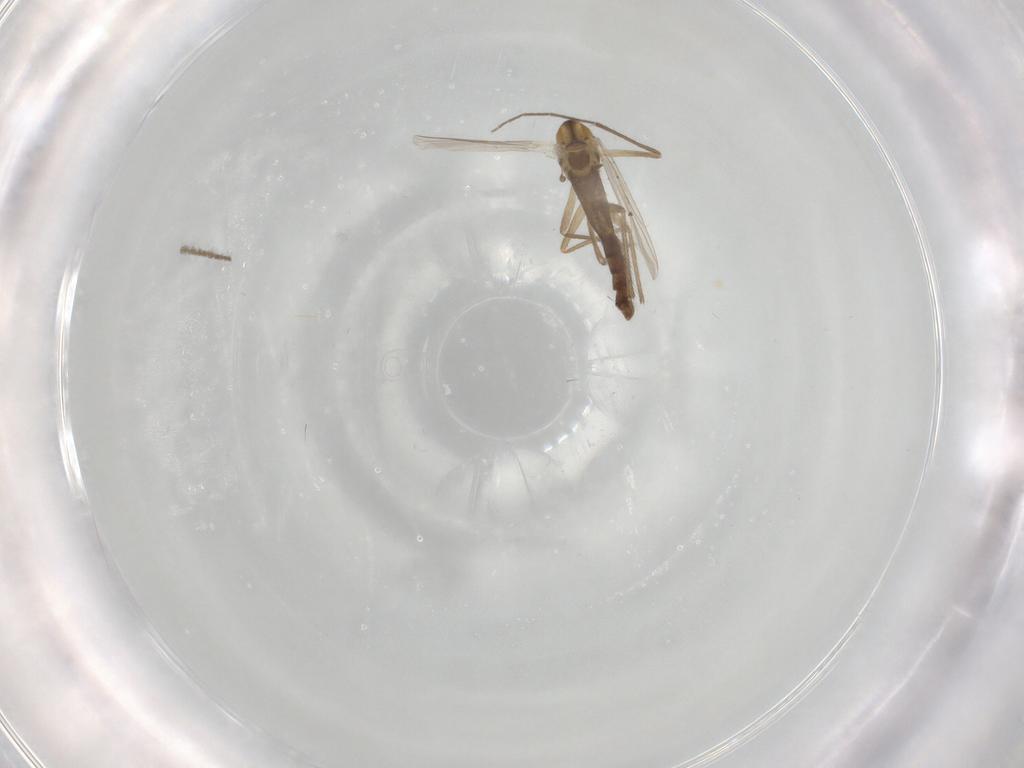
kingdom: Animalia
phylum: Arthropoda
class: Insecta
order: Diptera
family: Chironomidae
